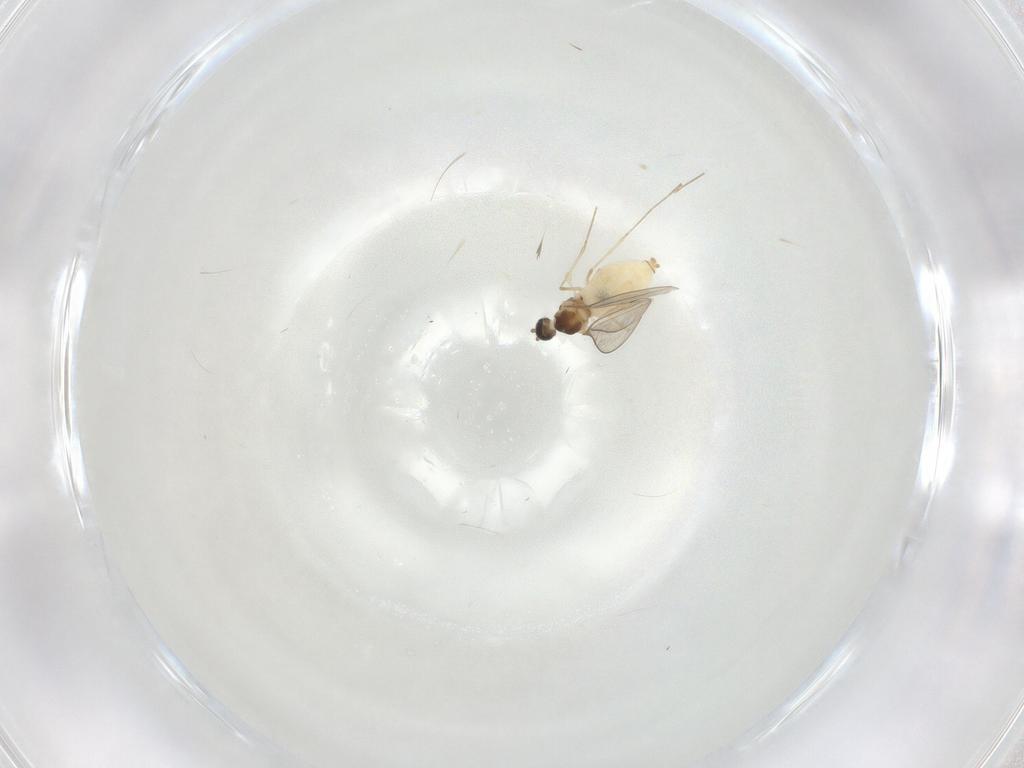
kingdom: Animalia
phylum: Arthropoda
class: Insecta
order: Diptera
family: Cecidomyiidae
